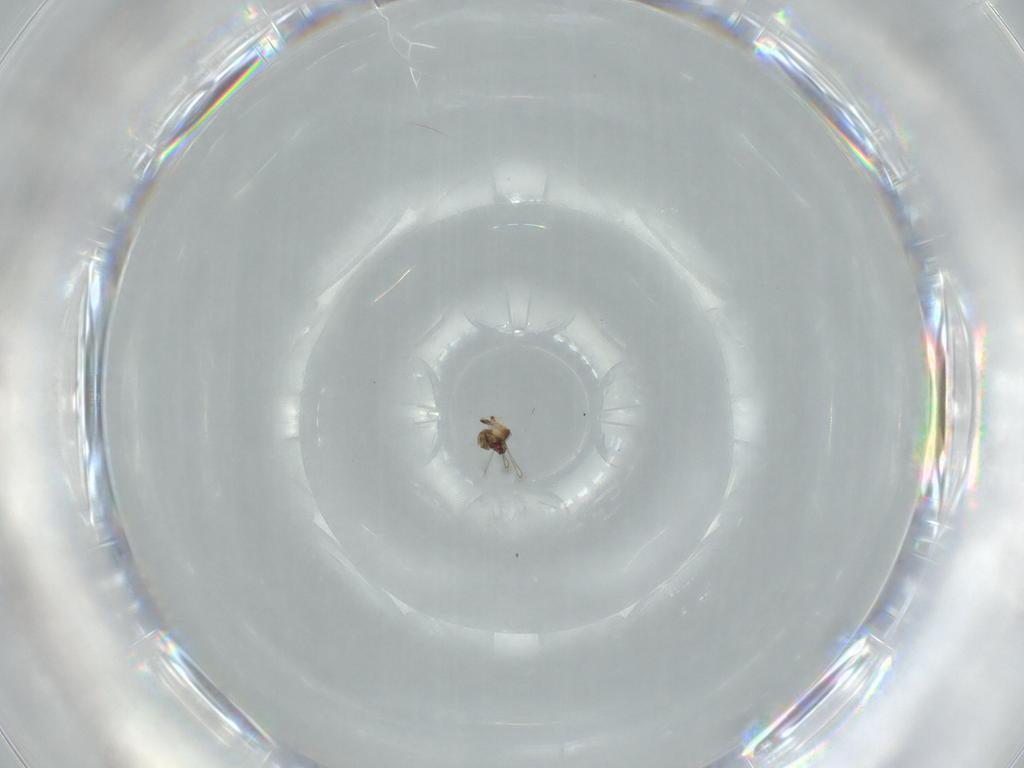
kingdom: Animalia
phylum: Arthropoda
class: Insecta
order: Hymenoptera
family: Mymaridae
